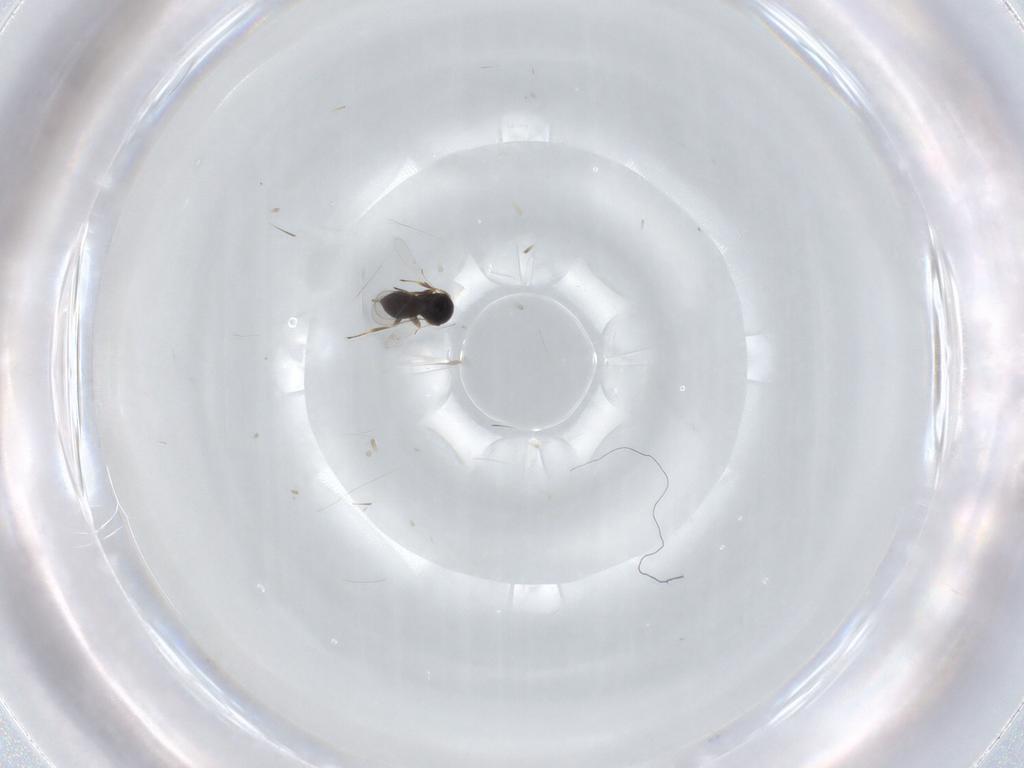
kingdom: Animalia
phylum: Arthropoda
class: Insecta
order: Hymenoptera
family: Scelionidae
